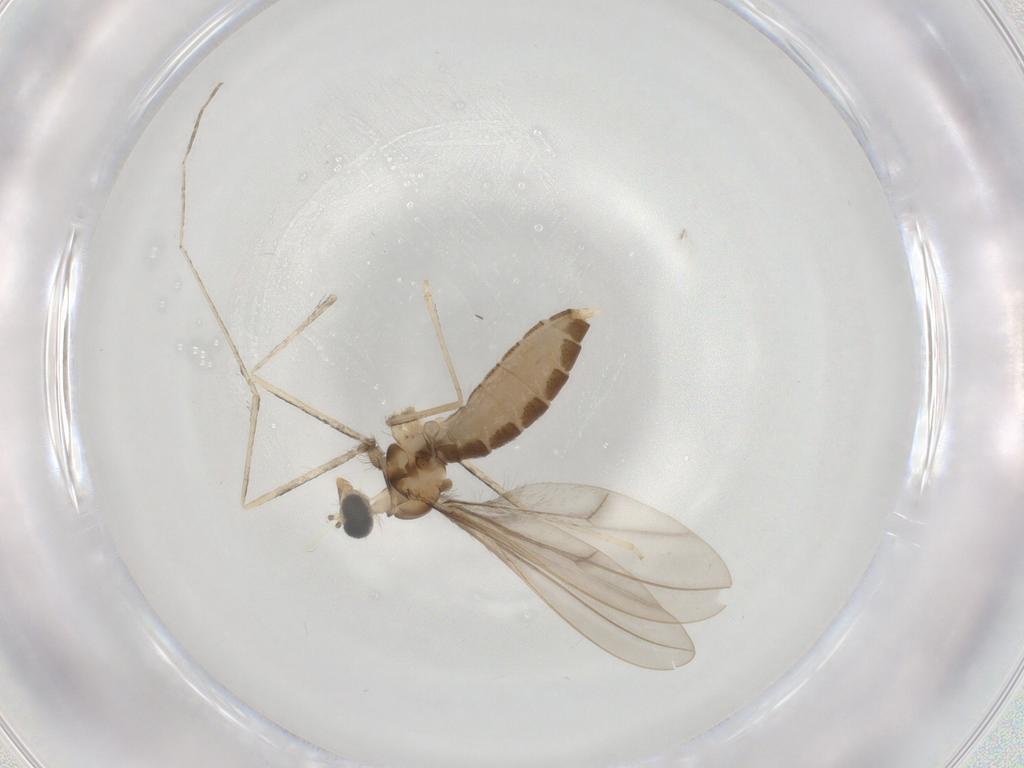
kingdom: Animalia
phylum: Arthropoda
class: Insecta
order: Diptera
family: Cecidomyiidae
